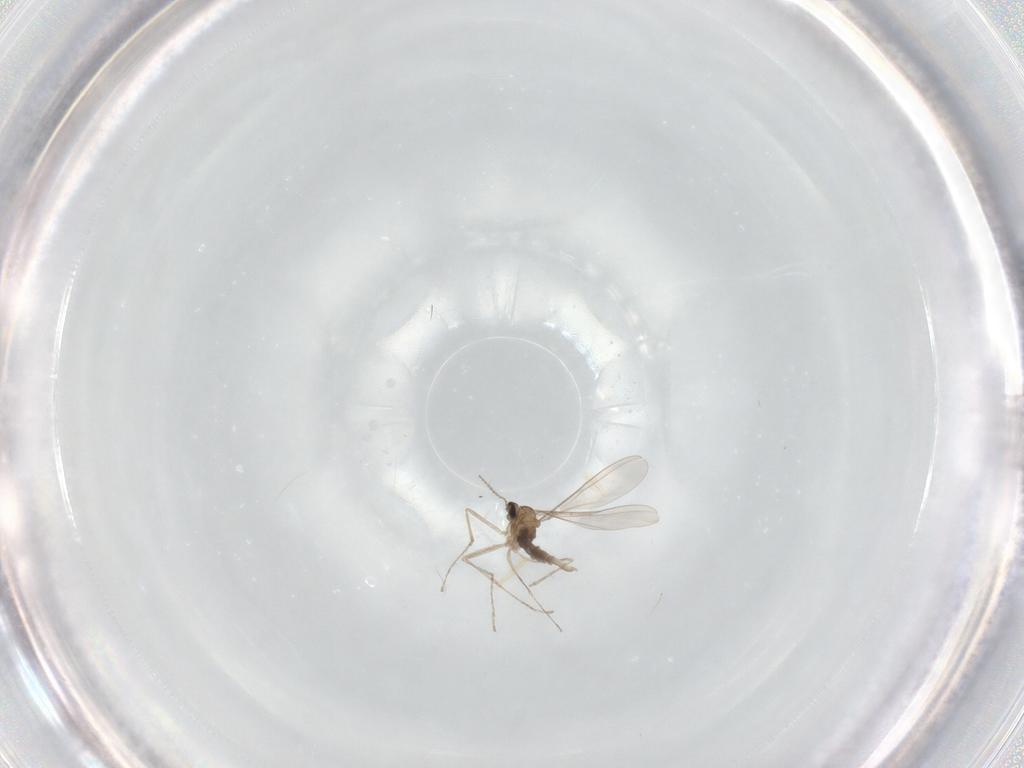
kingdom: Animalia
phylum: Arthropoda
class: Insecta
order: Diptera
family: Cecidomyiidae
